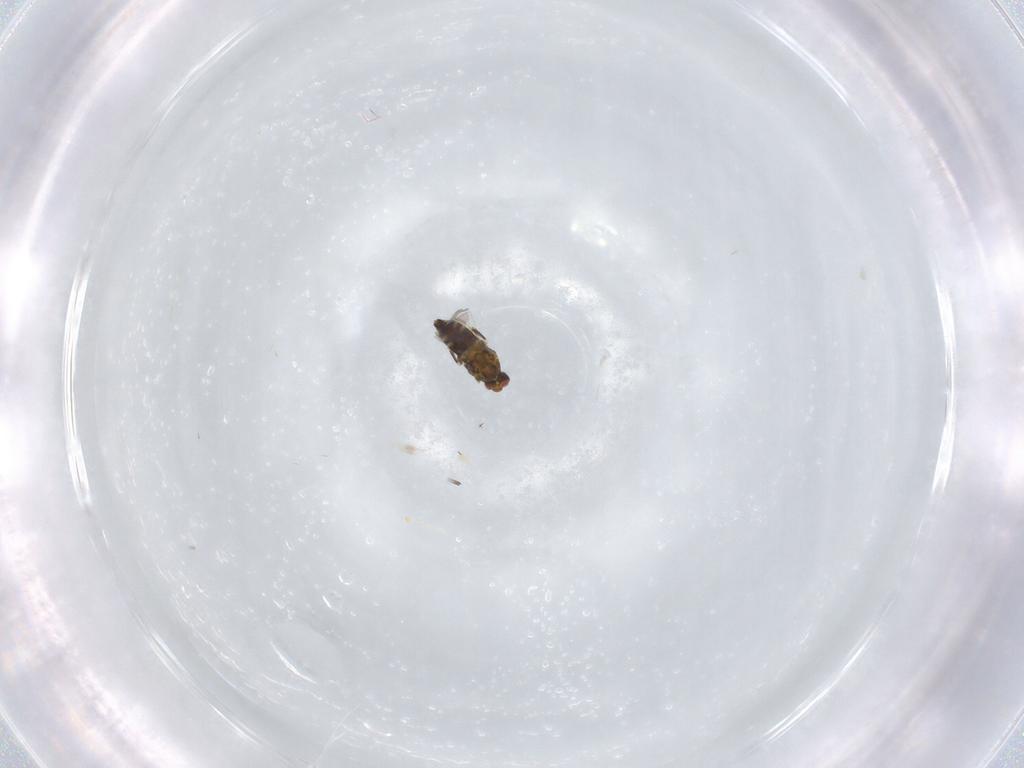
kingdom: Animalia
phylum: Arthropoda
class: Insecta
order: Hymenoptera
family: Trichogrammatidae
